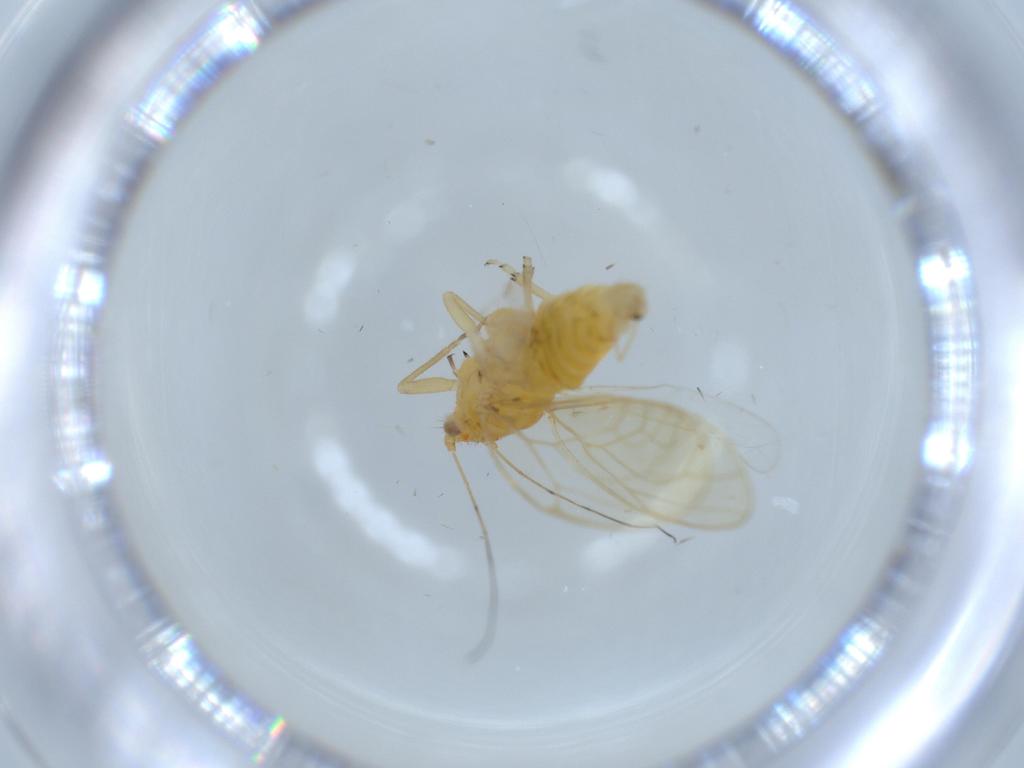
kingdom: Animalia
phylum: Arthropoda
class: Insecta
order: Hemiptera
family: Psyllidae
